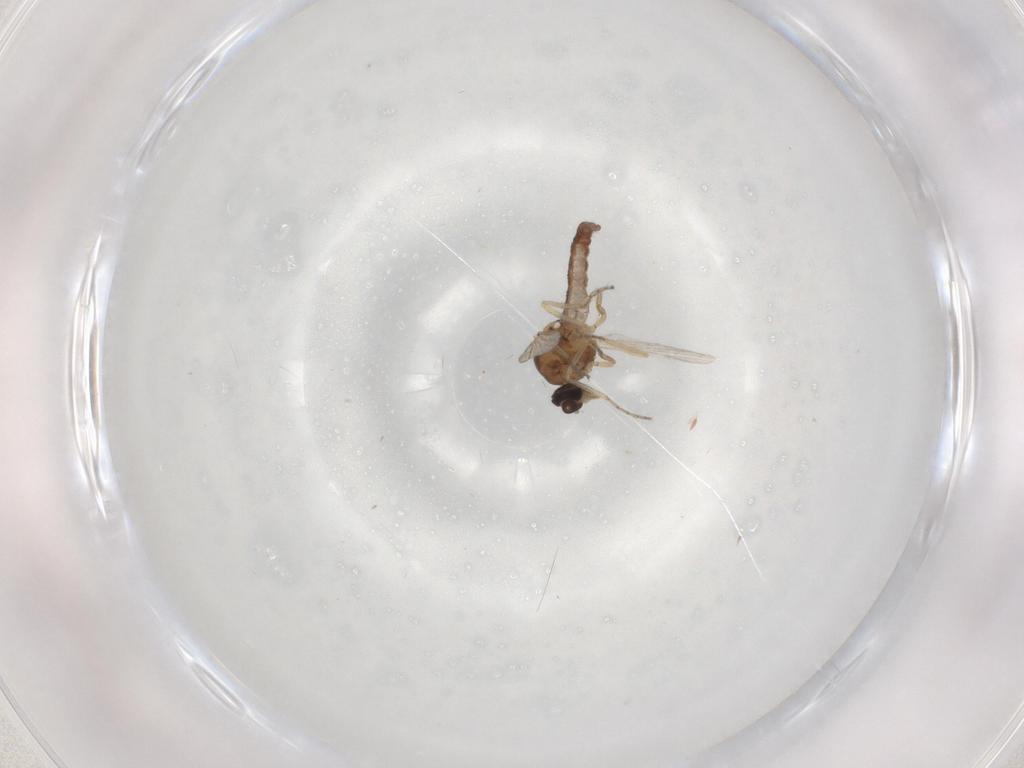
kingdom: Animalia
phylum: Arthropoda
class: Insecta
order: Diptera
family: Ceratopogonidae
